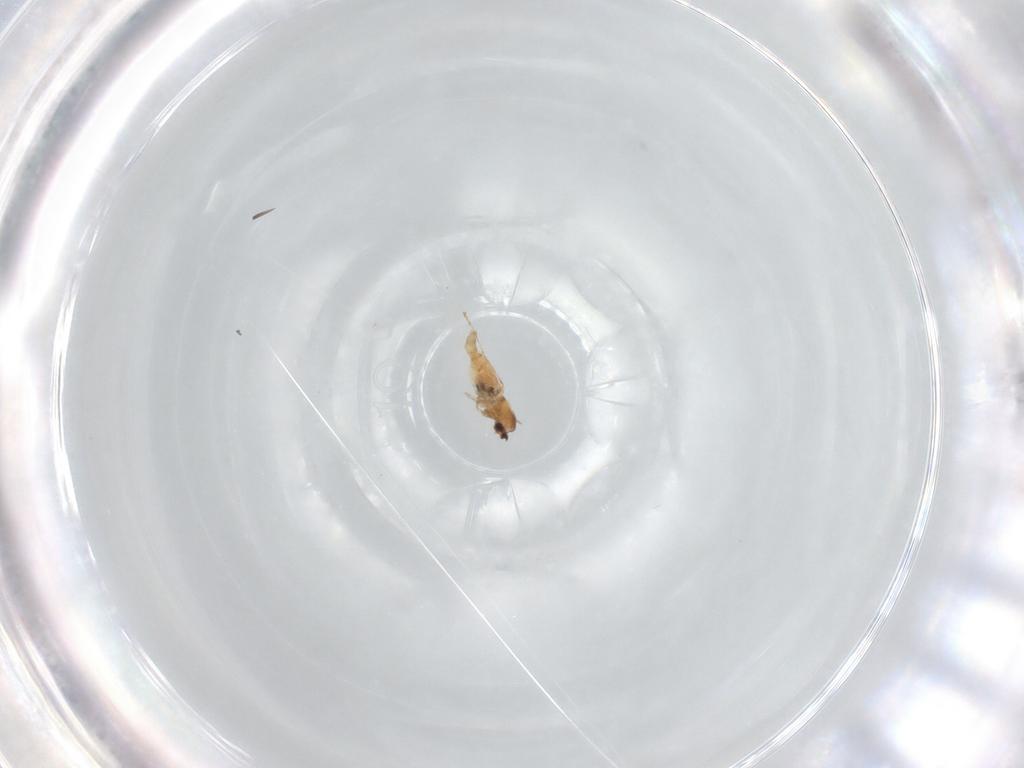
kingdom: Animalia
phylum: Arthropoda
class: Insecta
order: Diptera
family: Cecidomyiidae
